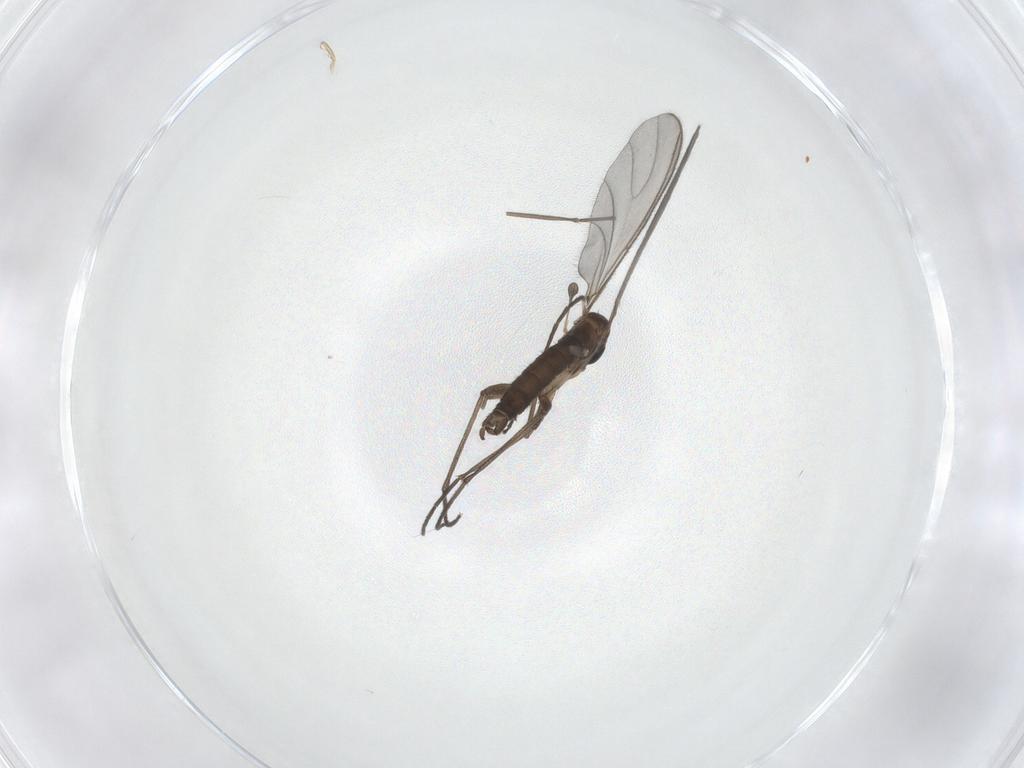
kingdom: Animalia
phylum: Arthropoda
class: Insecta
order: Diptera
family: Sciaridae
